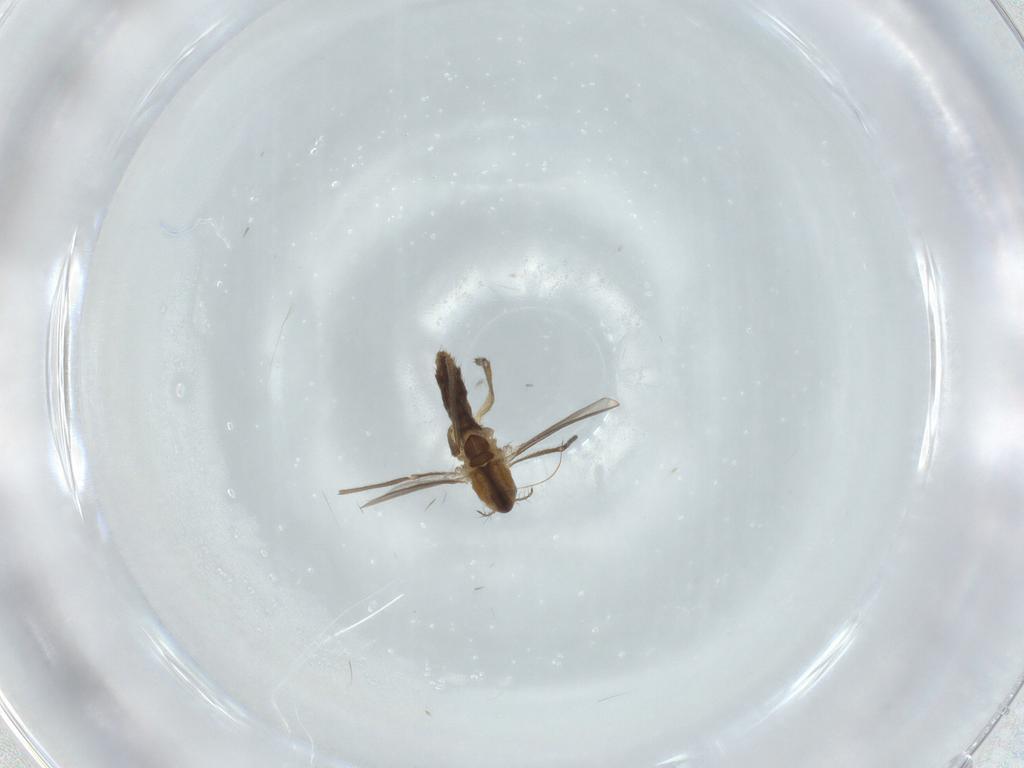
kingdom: Animalia
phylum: Arthropoda
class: Insecta
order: Diptera
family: Chironomidae
